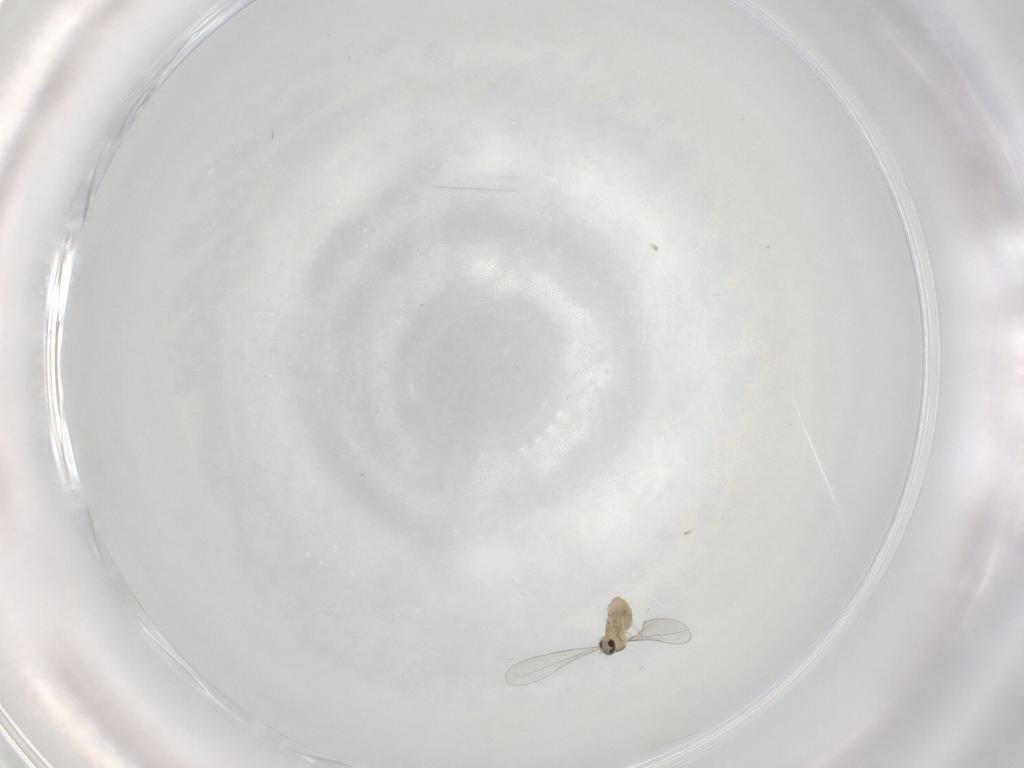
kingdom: Animalia
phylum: Arthropoda
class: Insecta
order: Diptera
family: Cecidomyiidae
